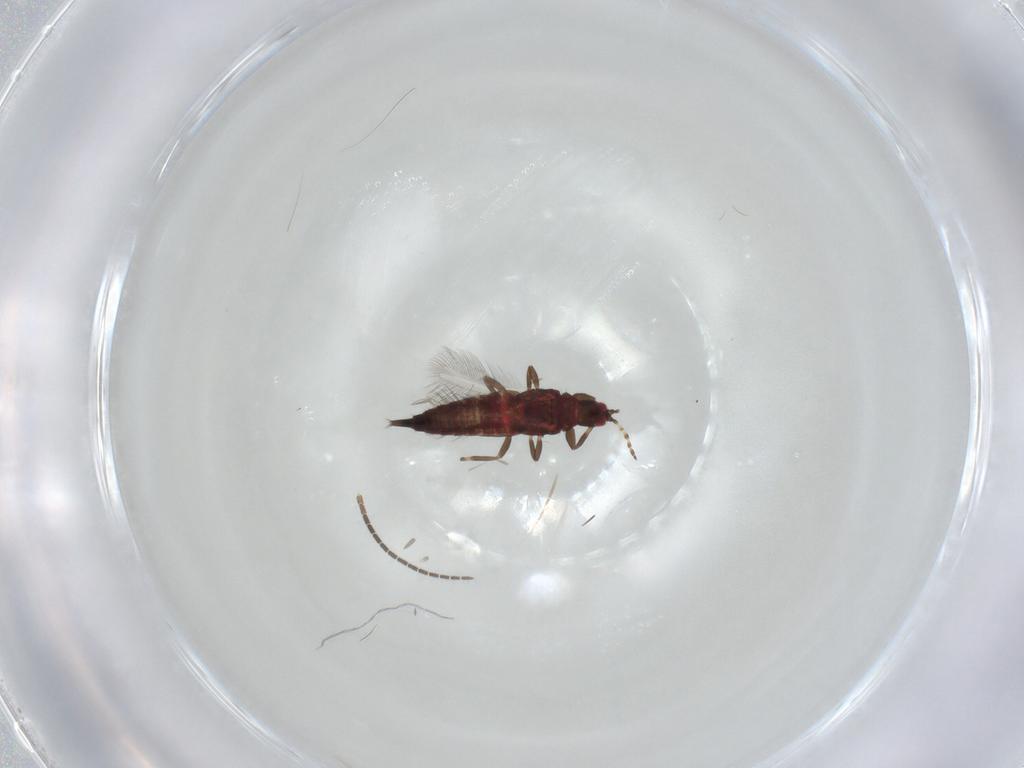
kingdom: Animalia
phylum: Arthropoda
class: Insecta
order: Thysanoptera
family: Phlaeothripidae
